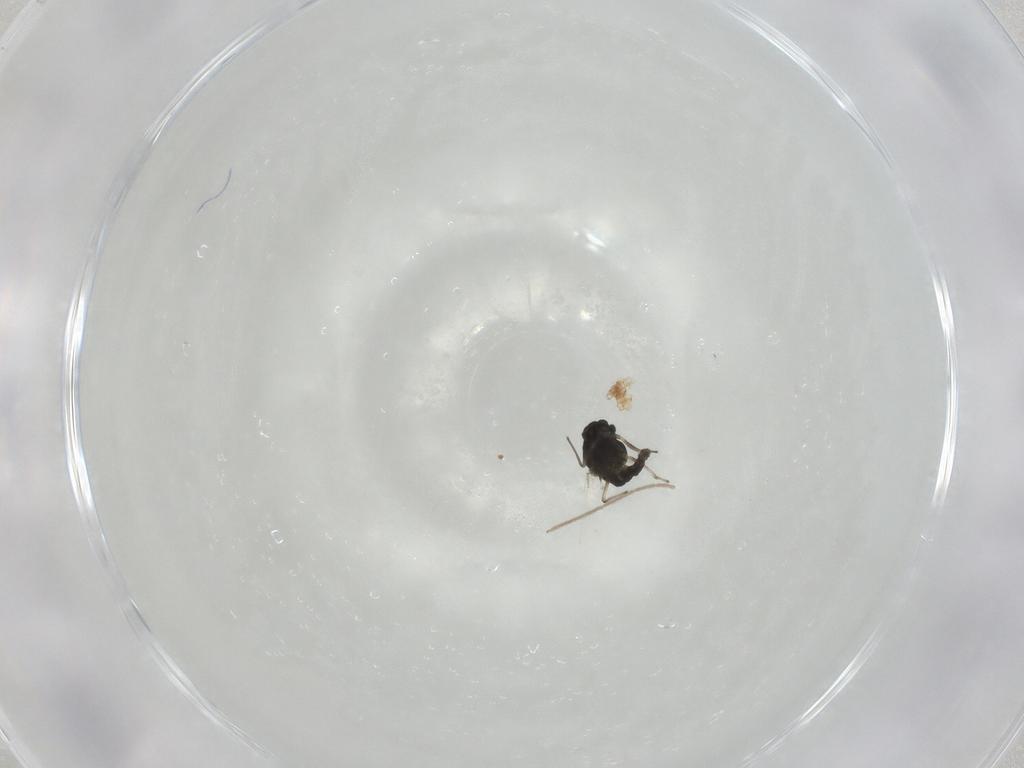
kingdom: Animalia
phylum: Arthropoda
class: Insecta
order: Diptera
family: Chironomidae
